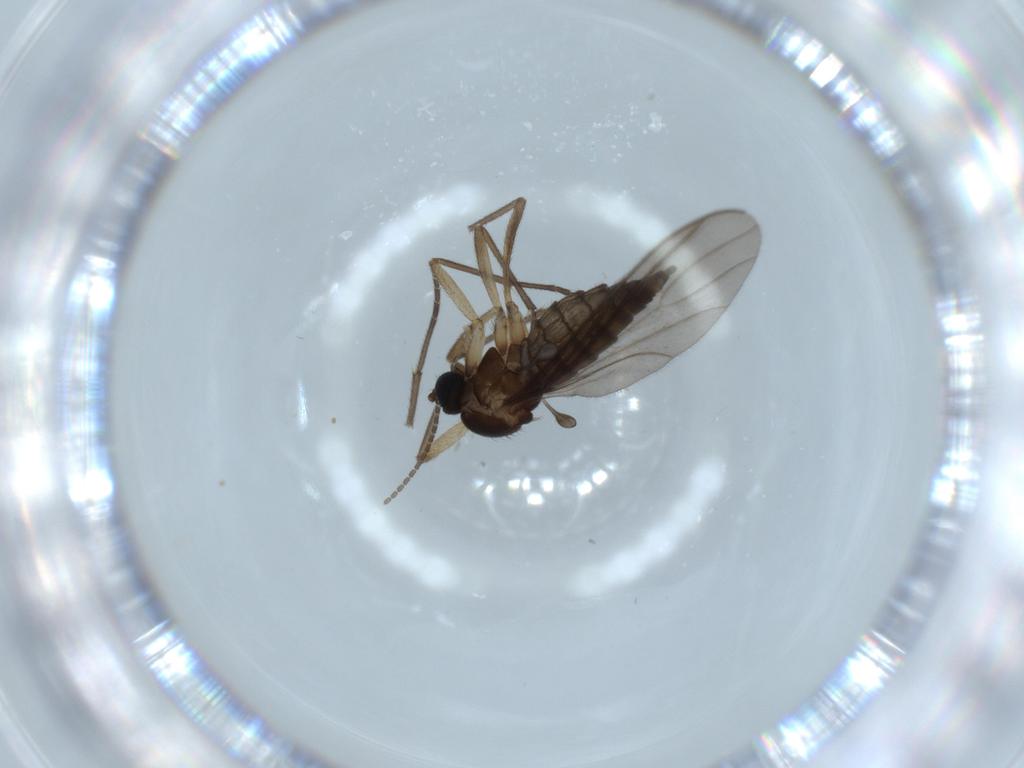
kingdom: Animalia
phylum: Arthropoda
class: Insecta
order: Diptera
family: Sciaridae
